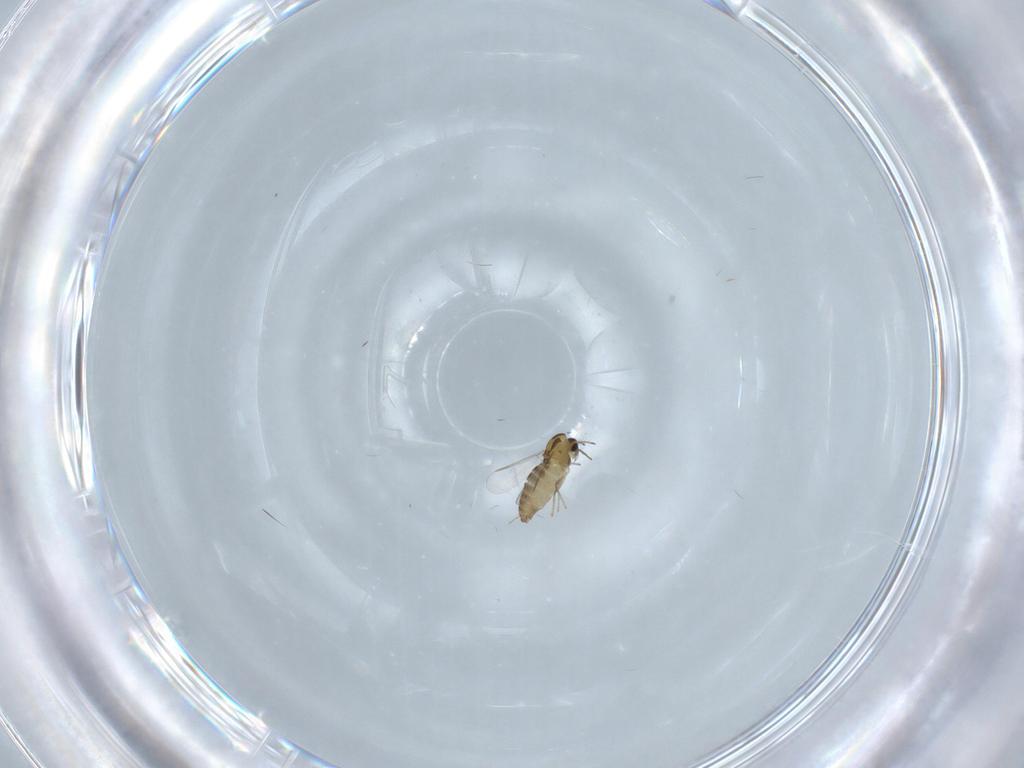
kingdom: Animalia
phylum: Arthropoda
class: Insecta
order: Diptera
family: Chironomidae
